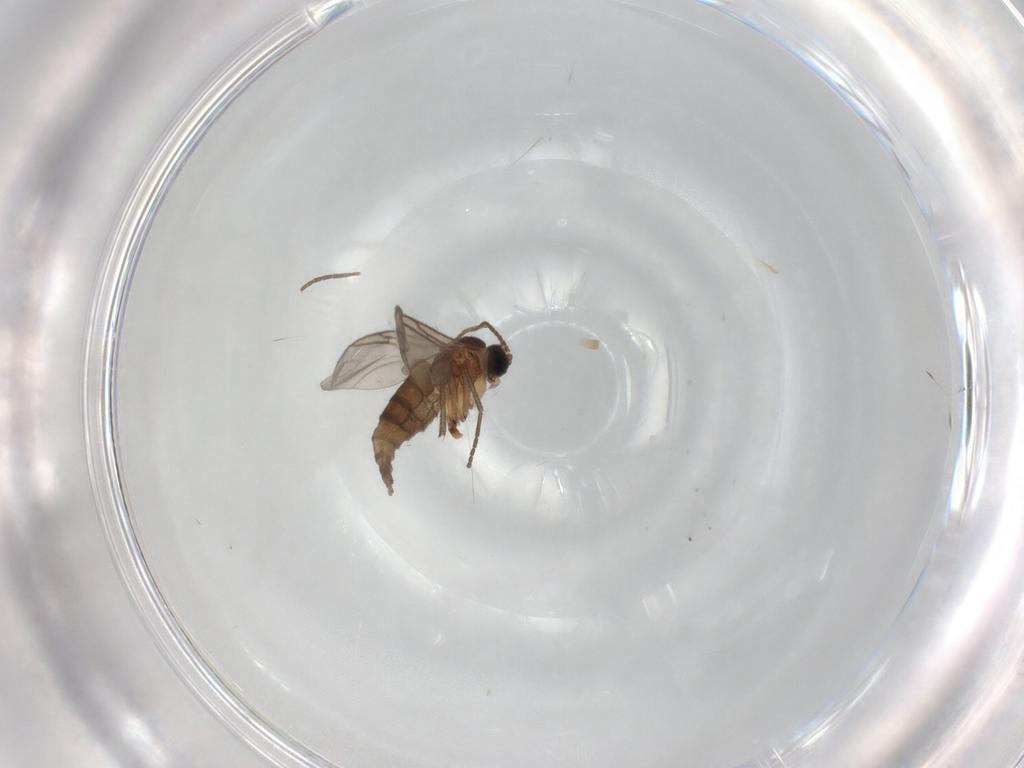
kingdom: Animalia
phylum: Arthropoda
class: Insecta
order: Diptera
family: Sciaridae
